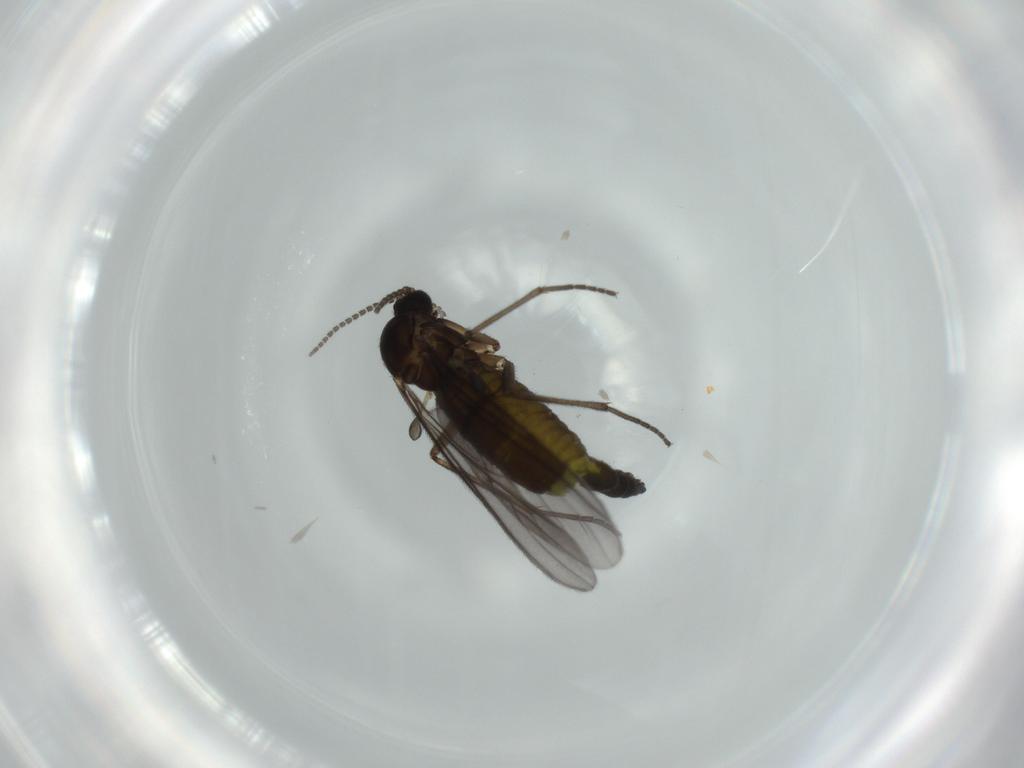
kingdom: Animalia
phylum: Arthropoda
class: Insecta
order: Diptera
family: Sciaridae
